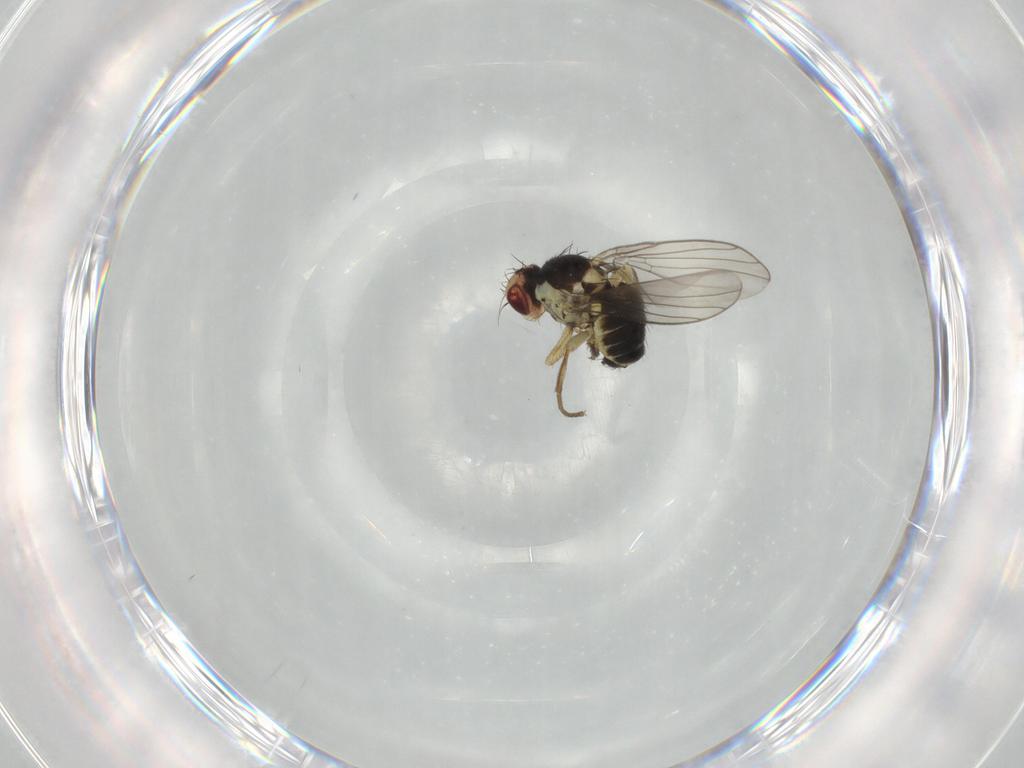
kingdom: Animalia
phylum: Arthropoda
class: Insecta
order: Diptera
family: Agromyzidae
